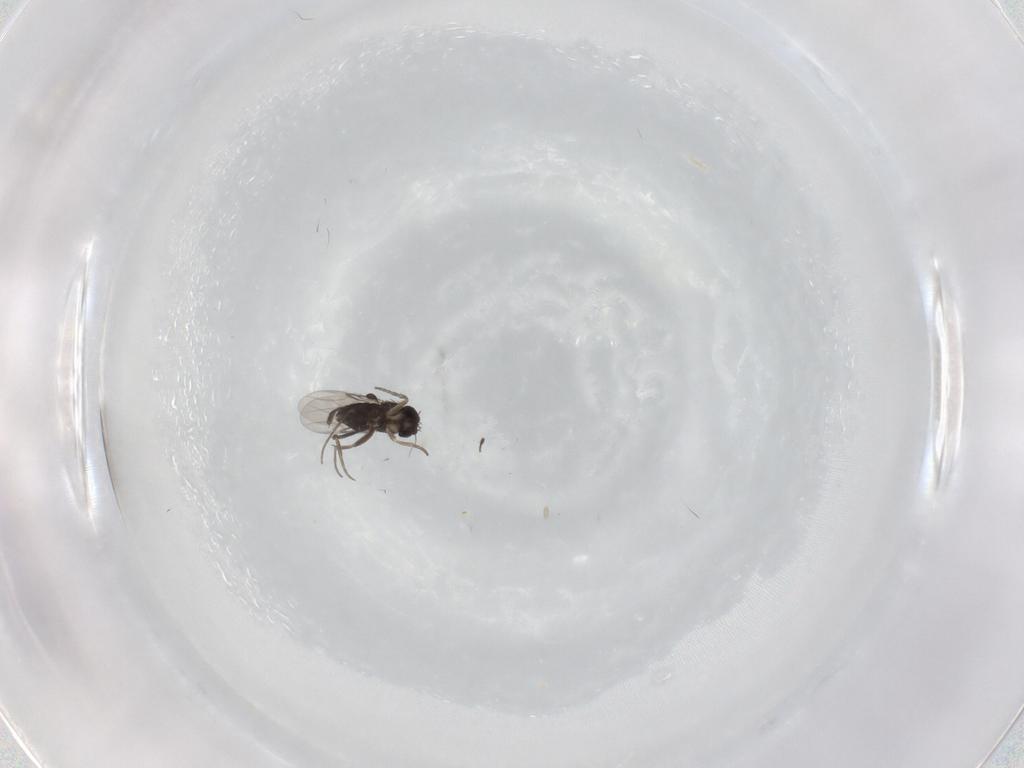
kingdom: Animalia
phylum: Arthropoda
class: Insecta
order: Diptera
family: Phoridae
